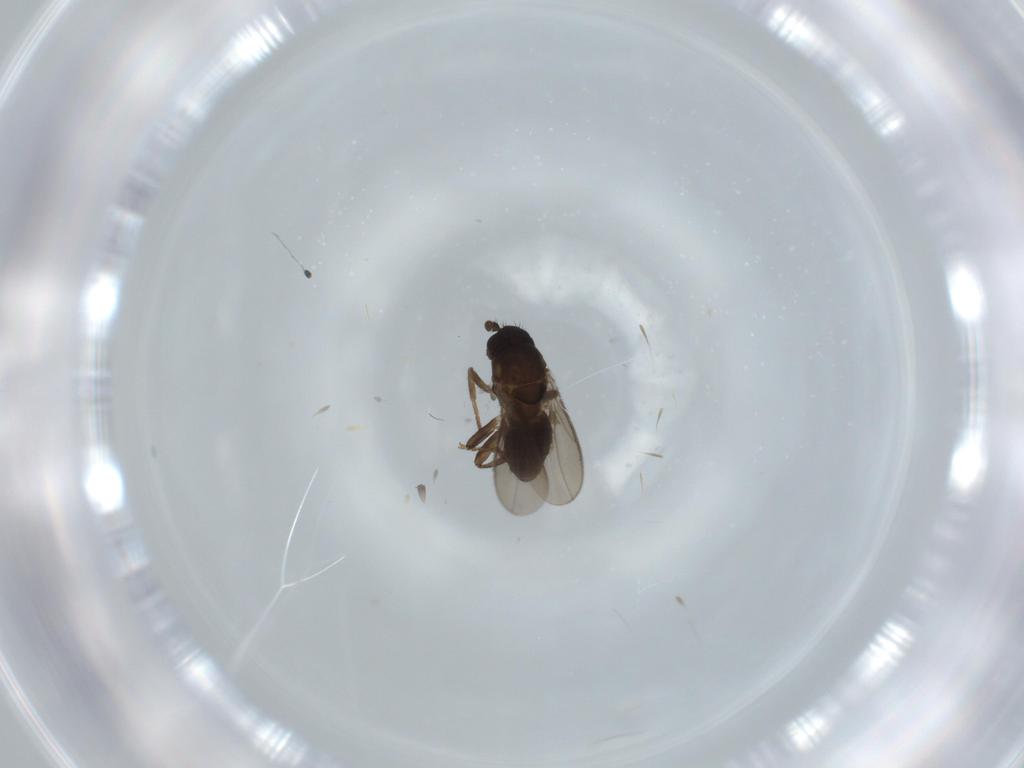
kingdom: Animalia
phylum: Arthropoda
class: Insecta
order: Diptera
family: Sphaeroceridae
